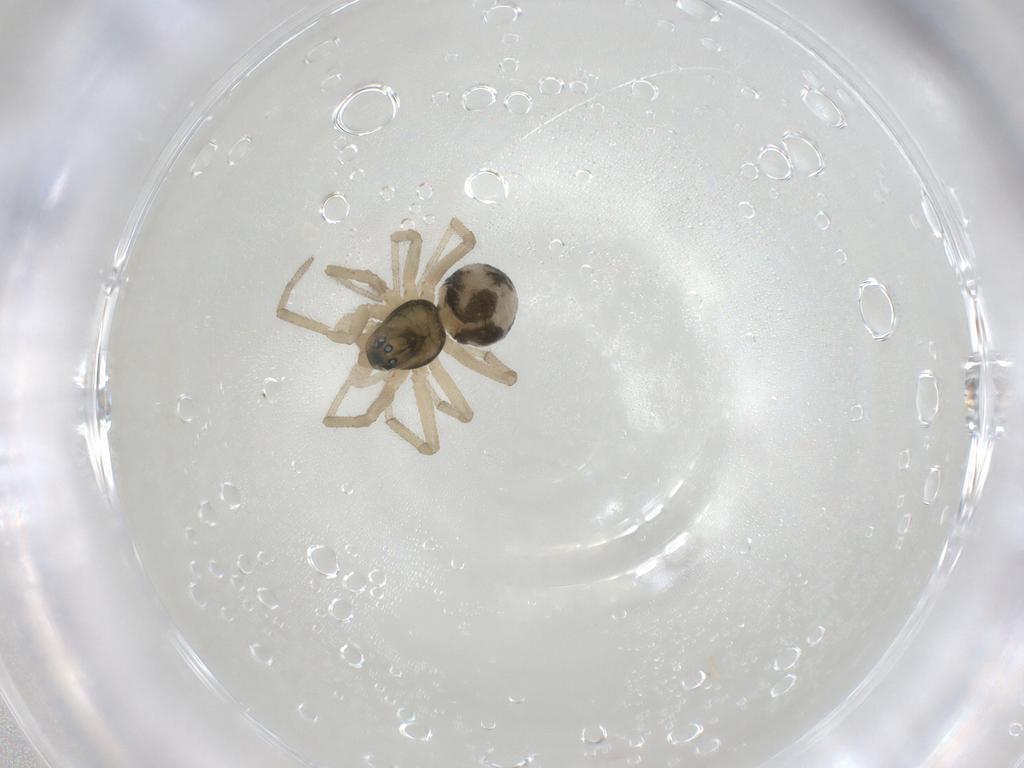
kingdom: Animalia
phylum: Arthropoda
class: Arachnida
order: Araneae
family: Linyphiidae
